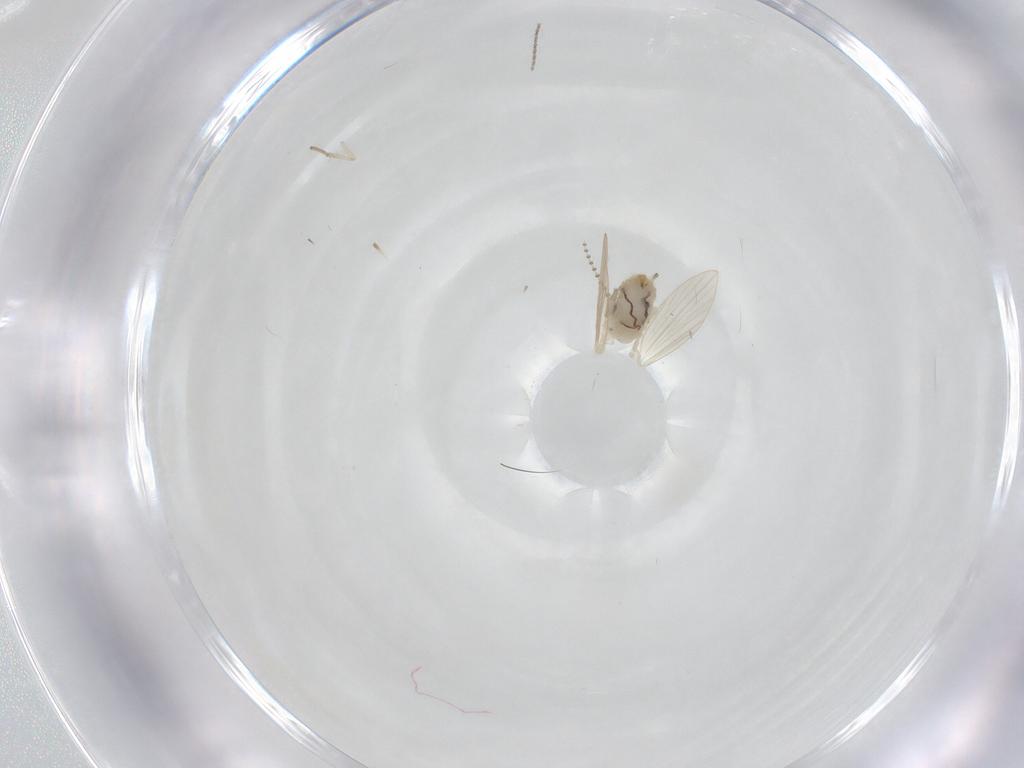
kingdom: Animalia
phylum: Arthropoda
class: Insecta
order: Diptera
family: Psychodidae
